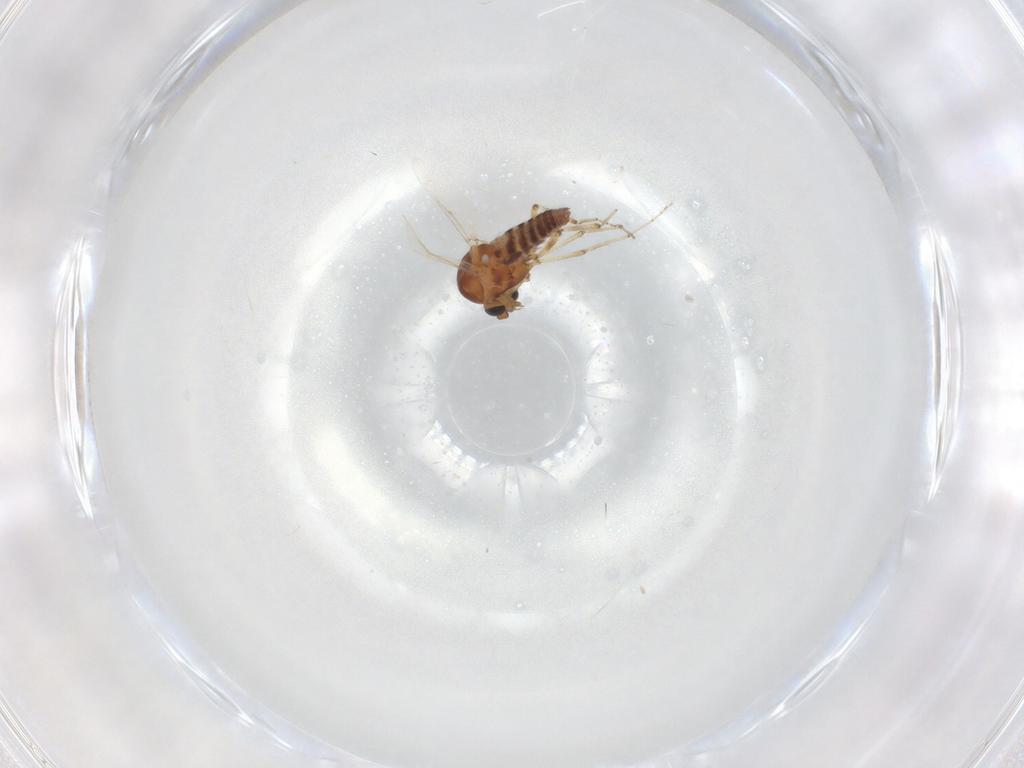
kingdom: Animalia
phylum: Arthropoda
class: Insecta
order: Diptera
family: Ceratopogonidae
